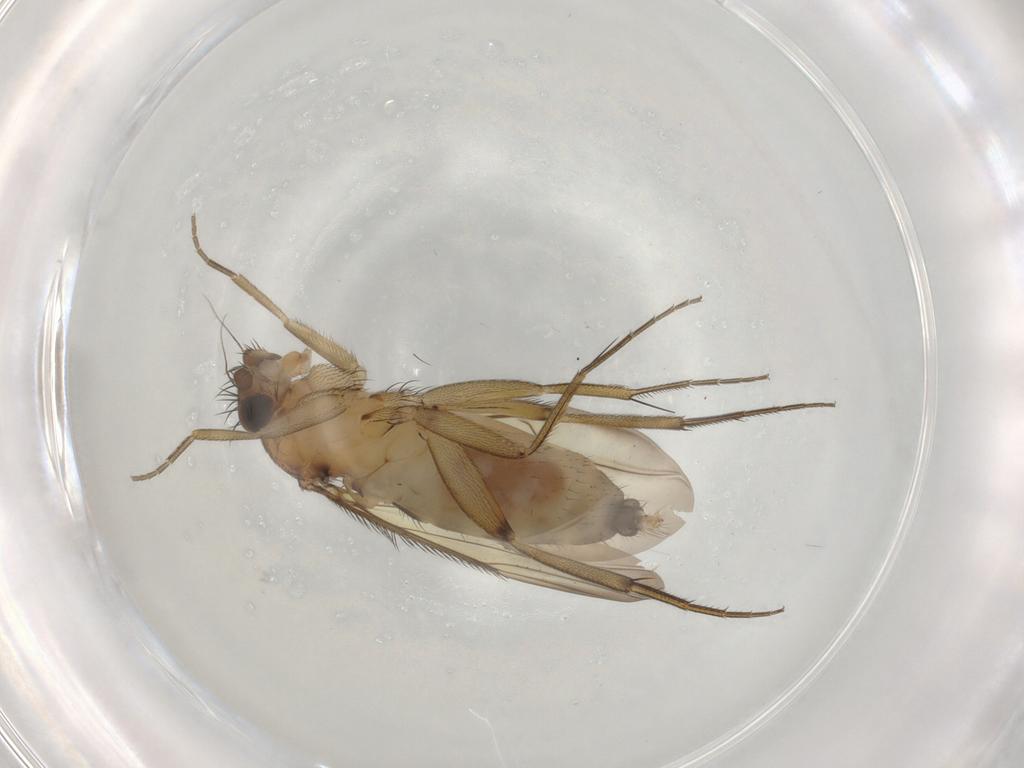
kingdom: Animalia
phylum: Arthropoda
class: Insecta
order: Diptera
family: Phoridae
